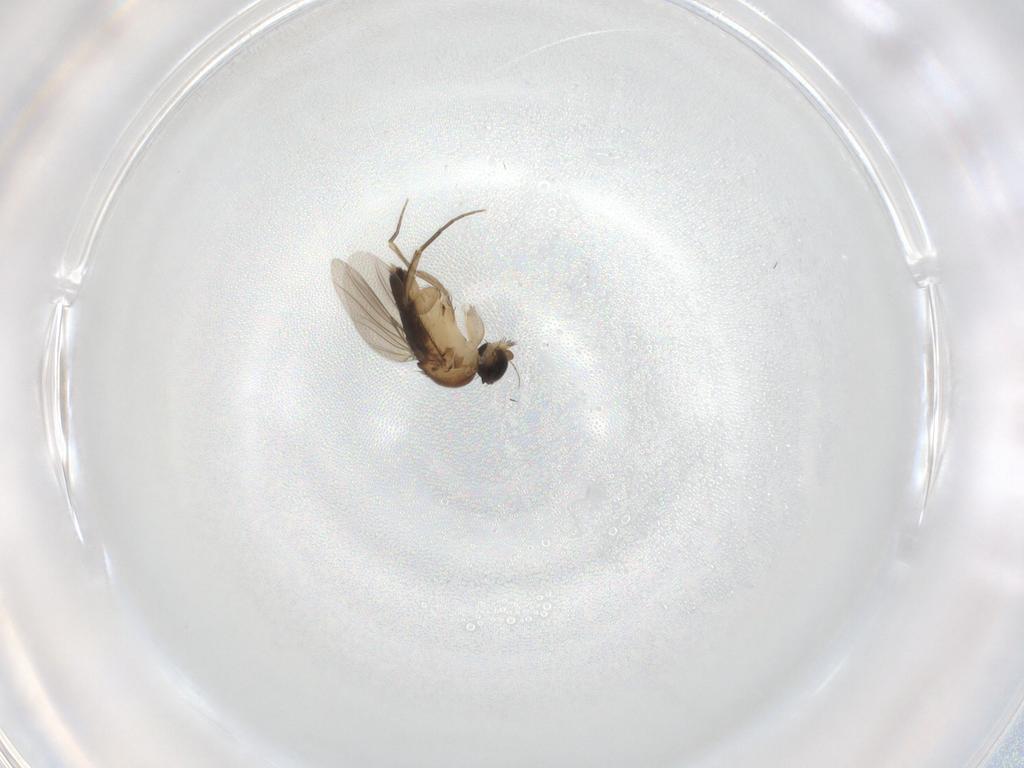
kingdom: Animalia
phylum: Arthropoda
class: Insecta
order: Diptera
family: Phoridae
